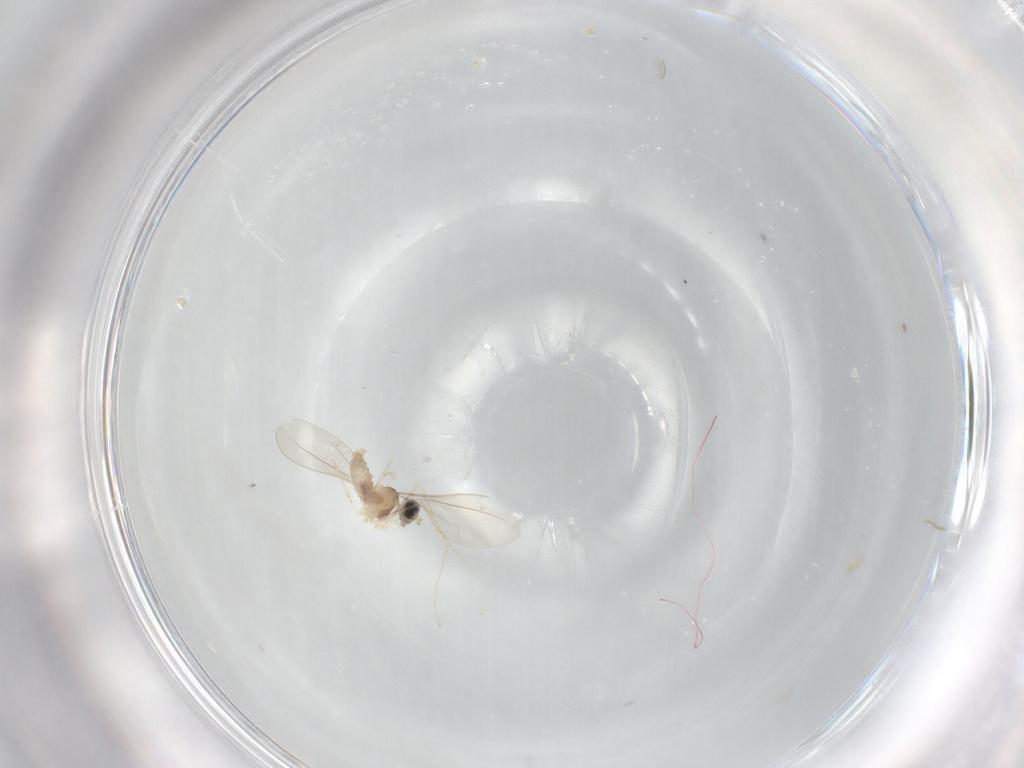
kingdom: Animalia
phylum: Arthropoda
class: Insecta
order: Diptera
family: Cecidomyiidae
